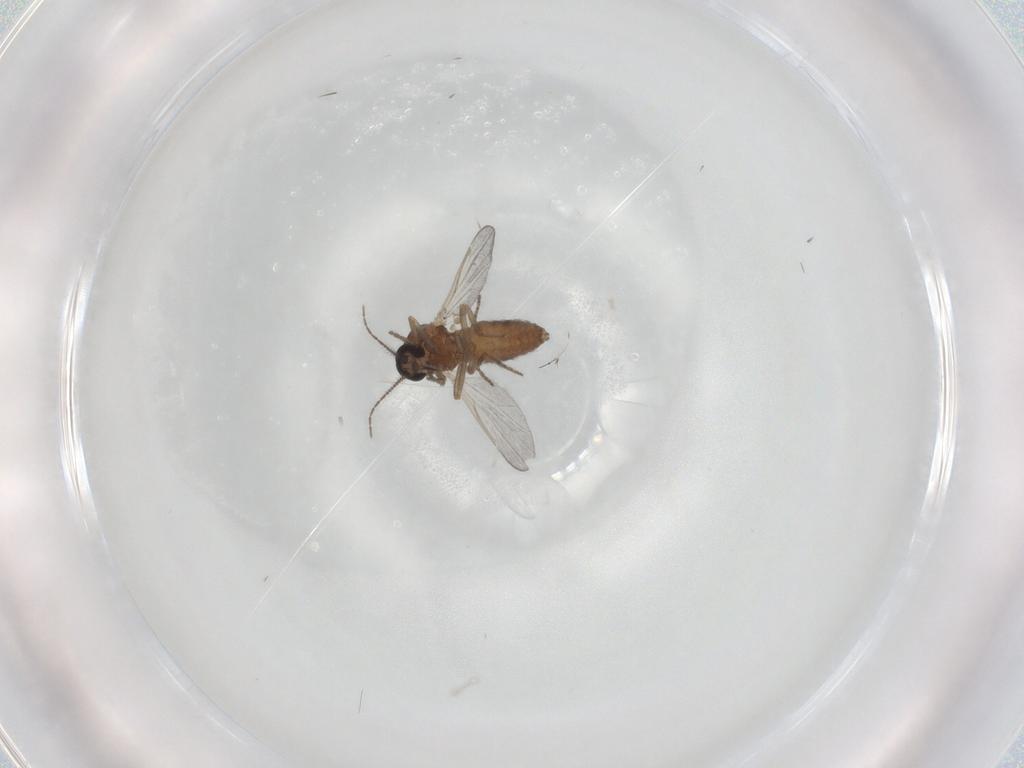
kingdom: Animalia
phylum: Arthropoda
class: Insecta
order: Diptera
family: Ceratopogonidae
